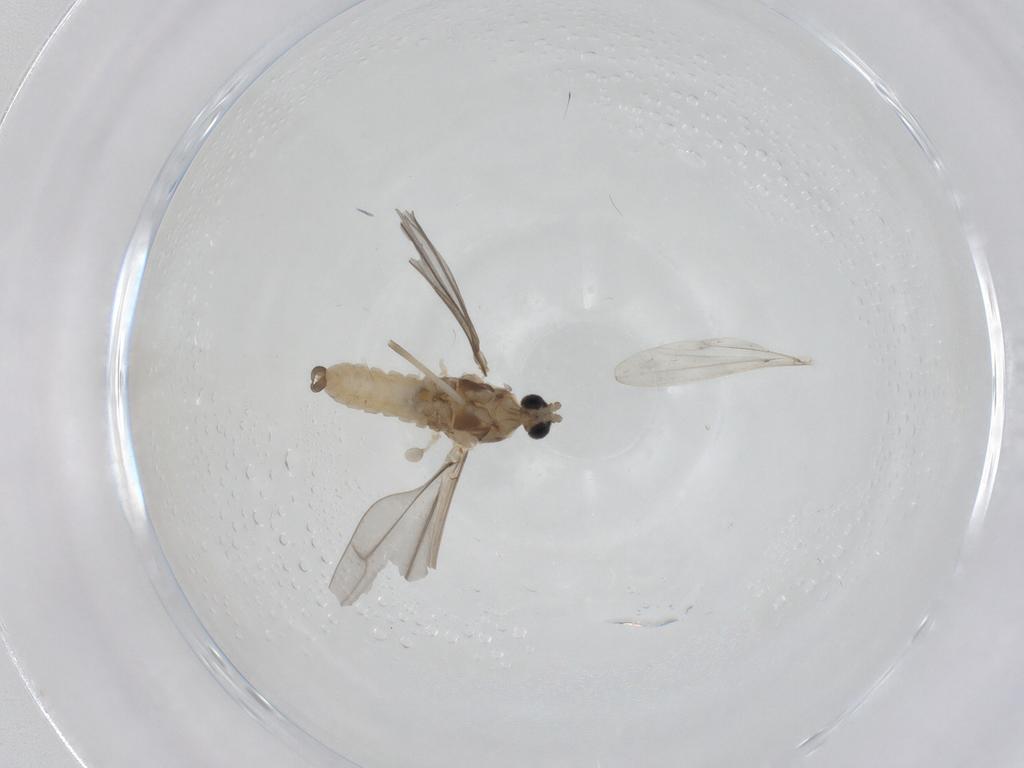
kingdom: Animalia
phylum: Arthropoda
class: Insecta
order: Diptera
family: Cecidomyiidae
